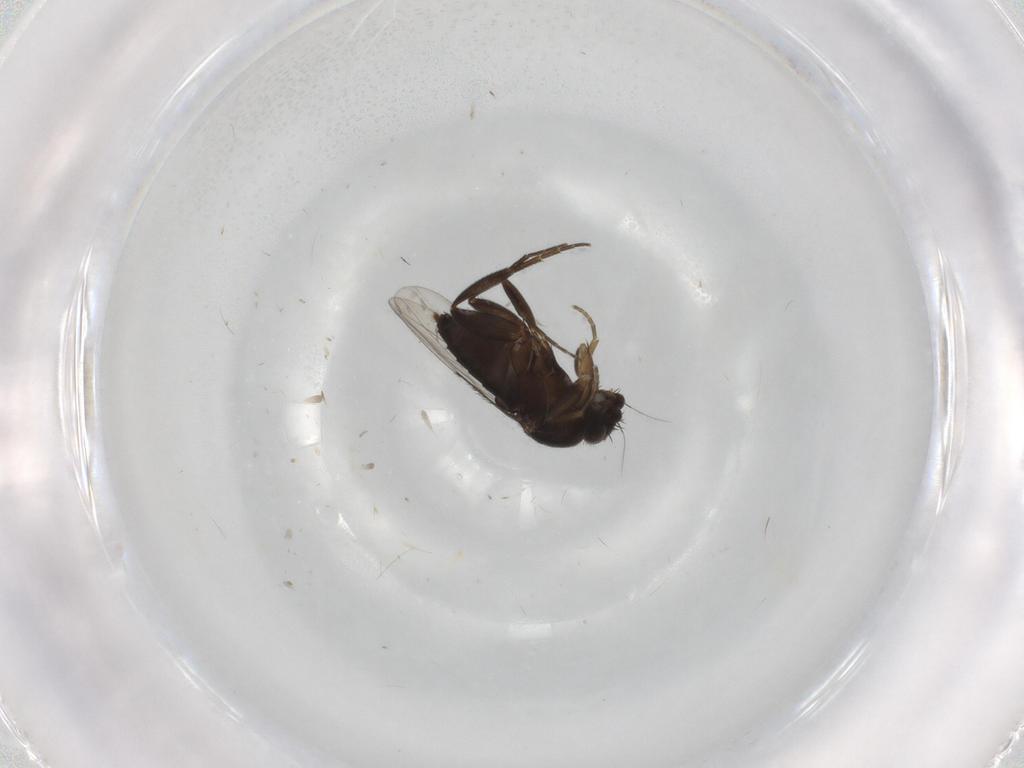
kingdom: Animalia
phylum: Arthropoda
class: Insecta
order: Diptera
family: Phoridae
